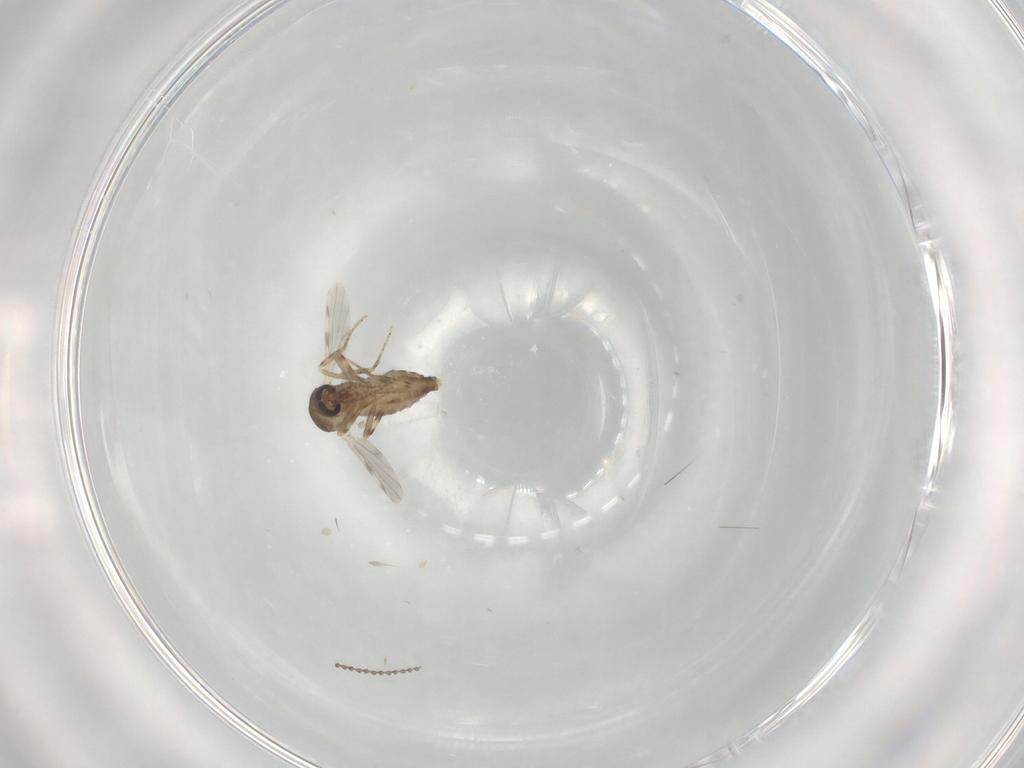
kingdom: Animalia
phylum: Arthropoda
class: Insecta
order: Diptera
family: Ceratopogonidae
